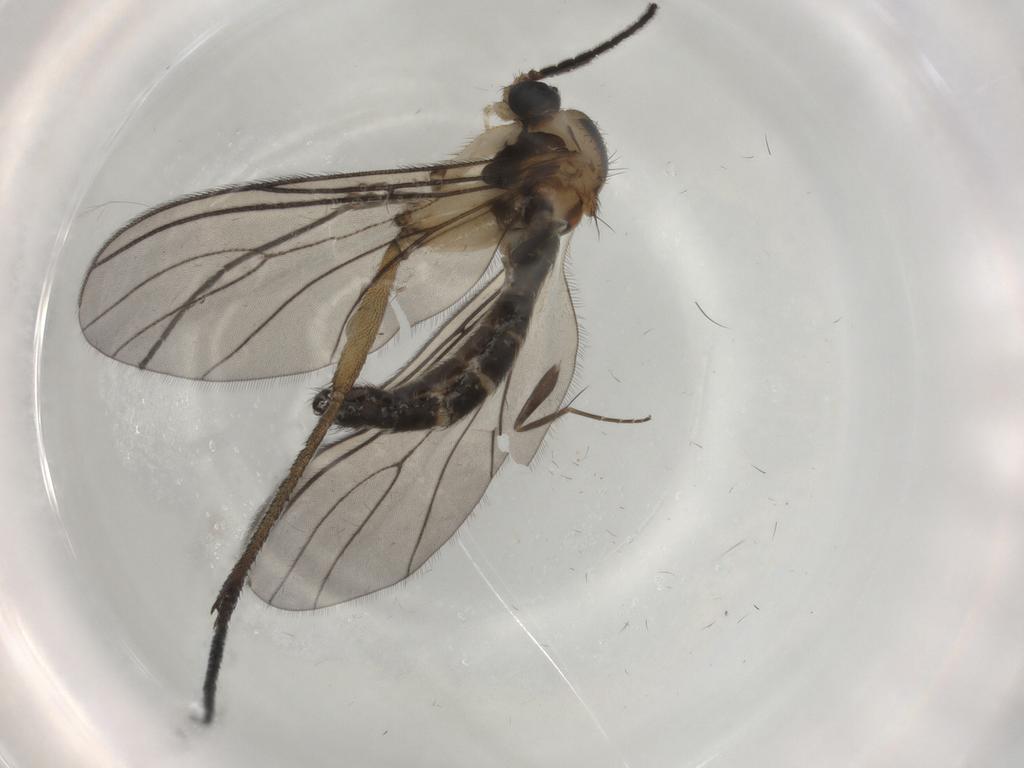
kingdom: Animalia
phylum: Arthropoda
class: Insecta
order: Diptera
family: Sciaridae
